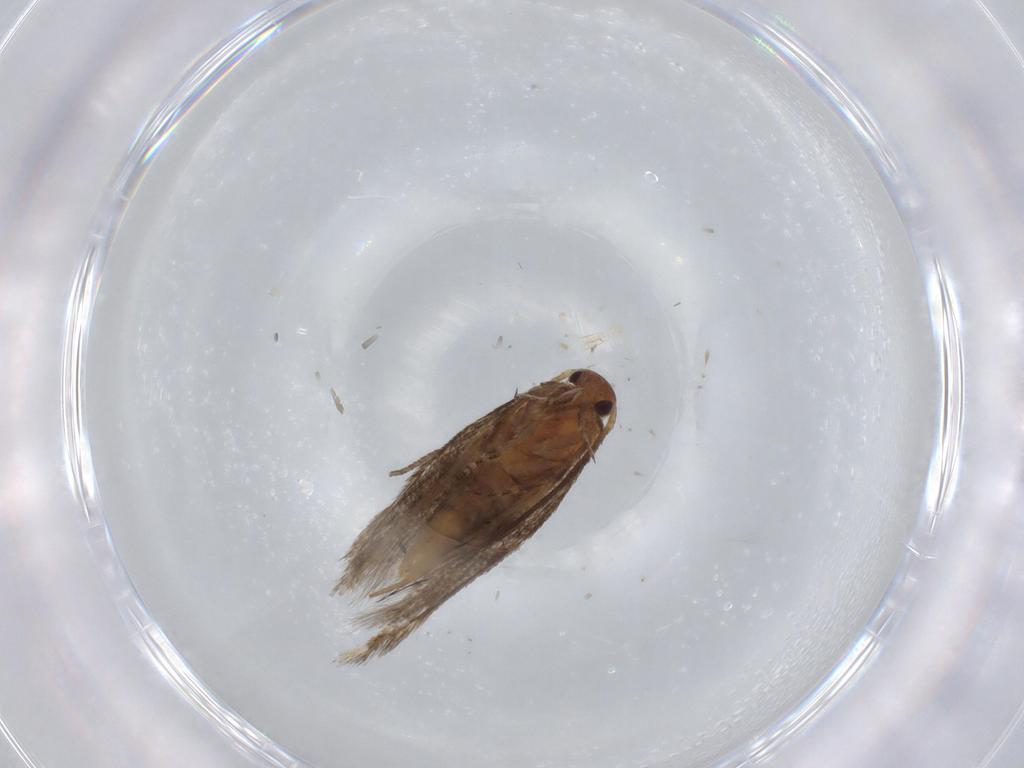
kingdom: Animalia
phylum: Arthropoda
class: Insecta
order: Lepidoptera
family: Elachistidae
